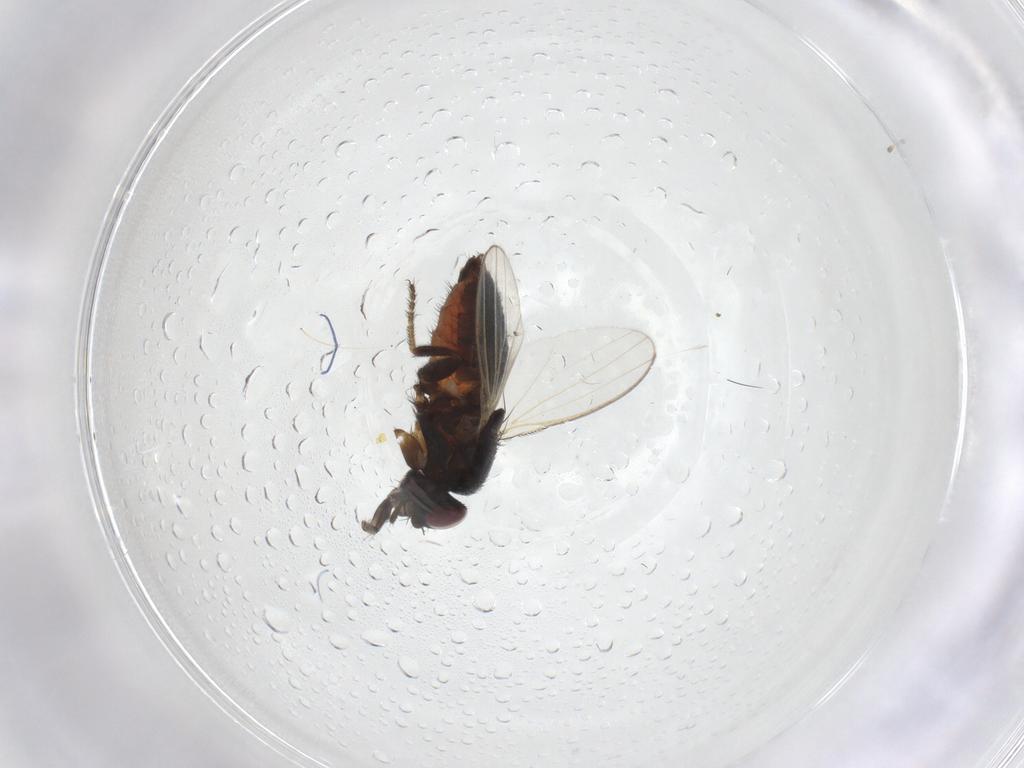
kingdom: Animalia
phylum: Arthropoda
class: Insecta
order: Diptera
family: Milichiidae
